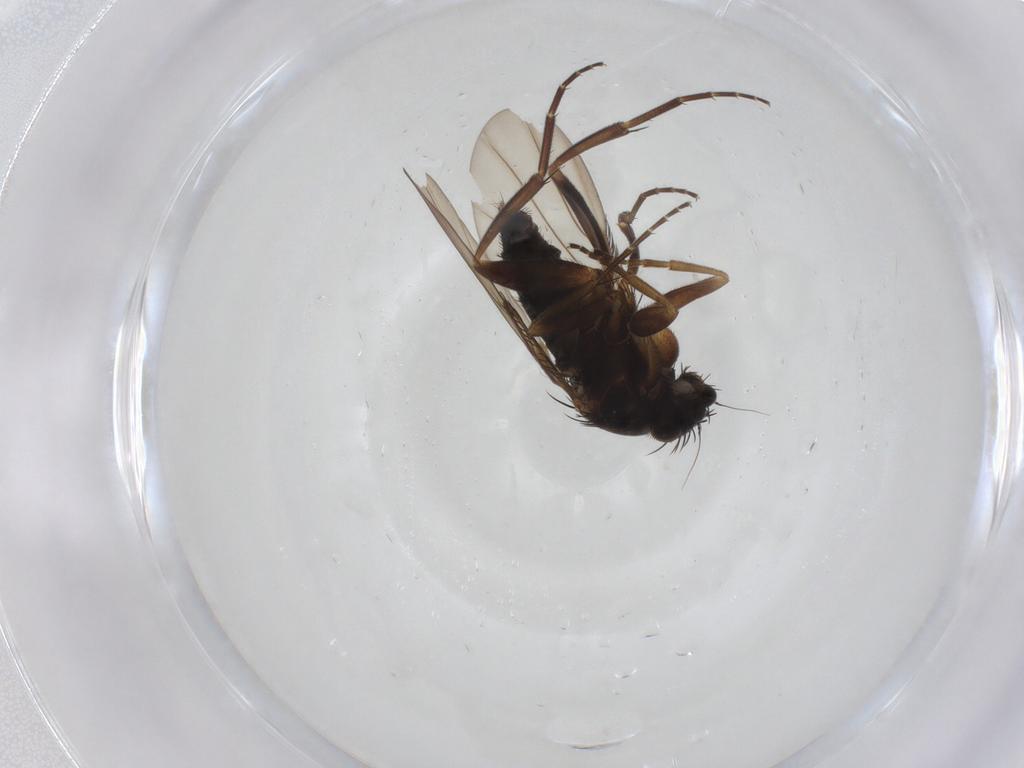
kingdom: Animalia
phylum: Arthropoda
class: Insecta
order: Diptera
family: Phoridae
